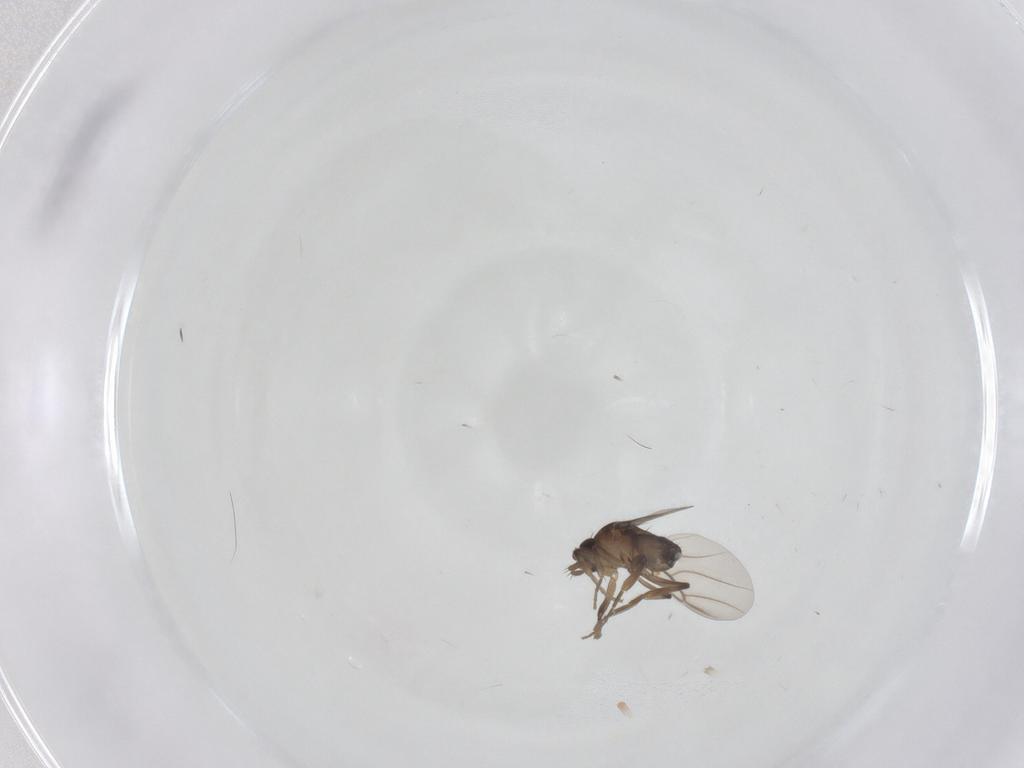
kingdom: Animalia
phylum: Arthropoda
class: Insecta
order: Diptera
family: Phoridae
